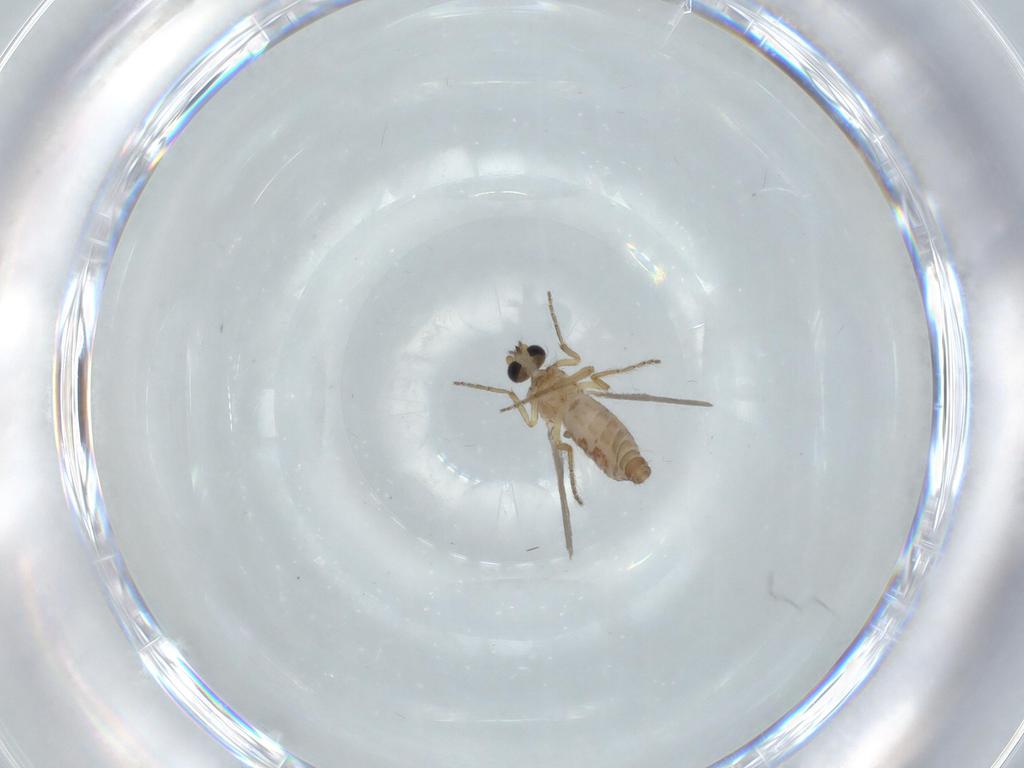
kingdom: Animalia
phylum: Arthropoda
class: Insecta
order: Diptera
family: Ceratopogonidae
